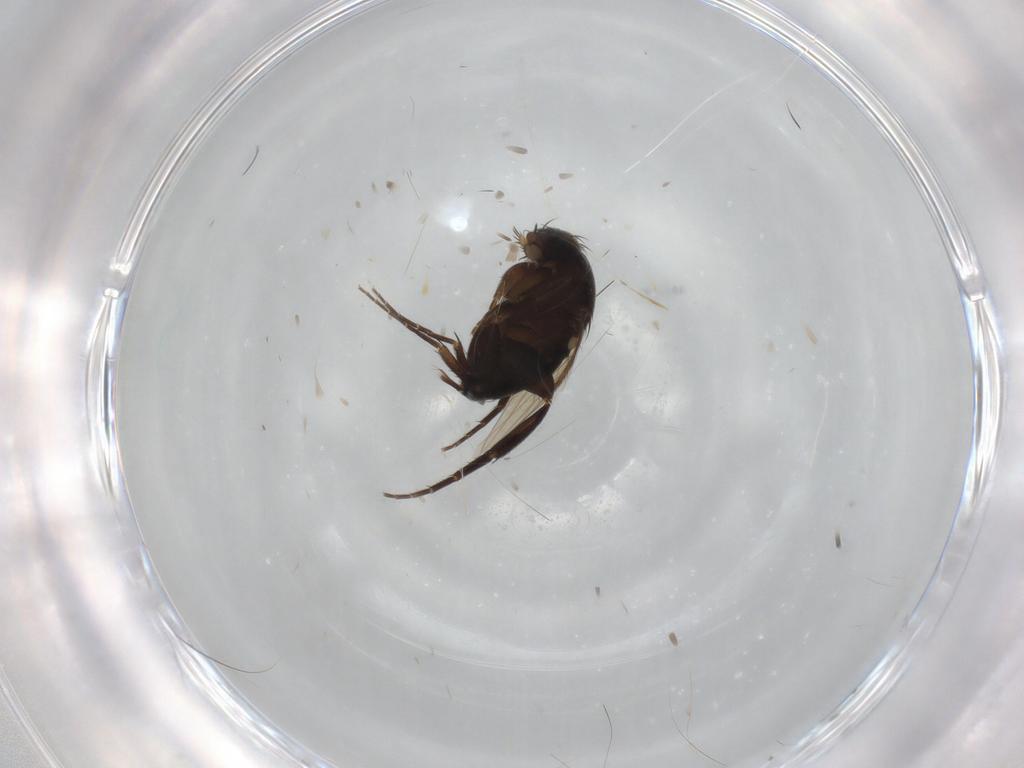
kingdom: Animalia
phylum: Arthropoda
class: Insecta
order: Diptera
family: Phoridae
